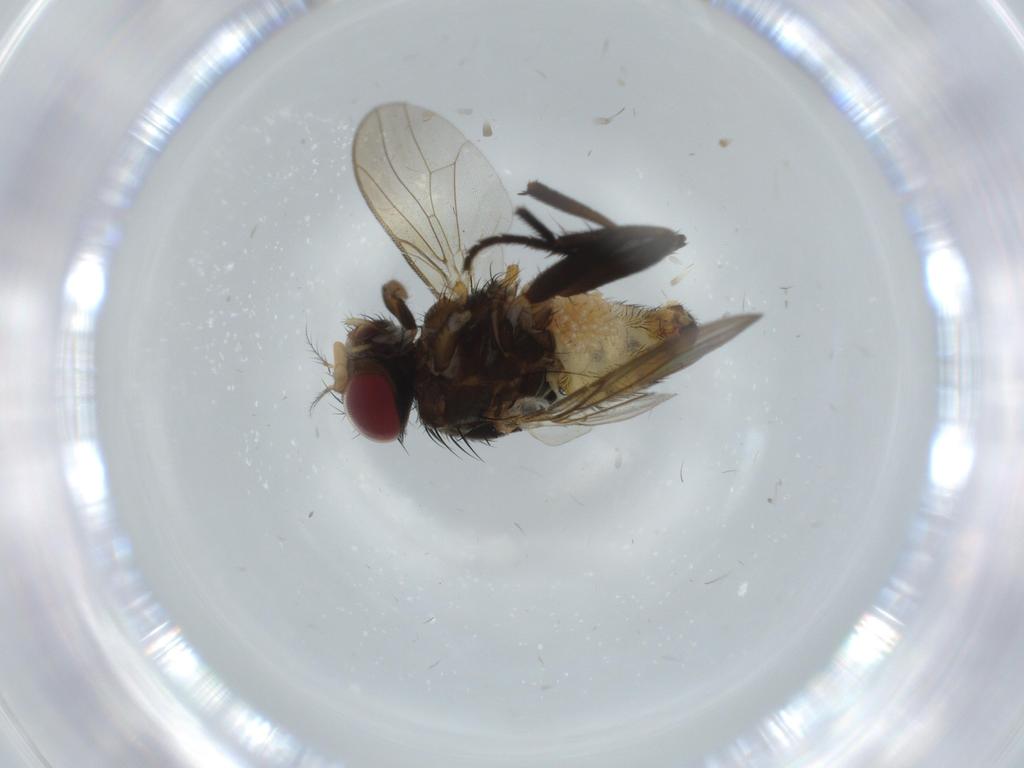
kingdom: Animalia
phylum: Arthropoda
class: Insecta
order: Diptera
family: Anthomyiidae
